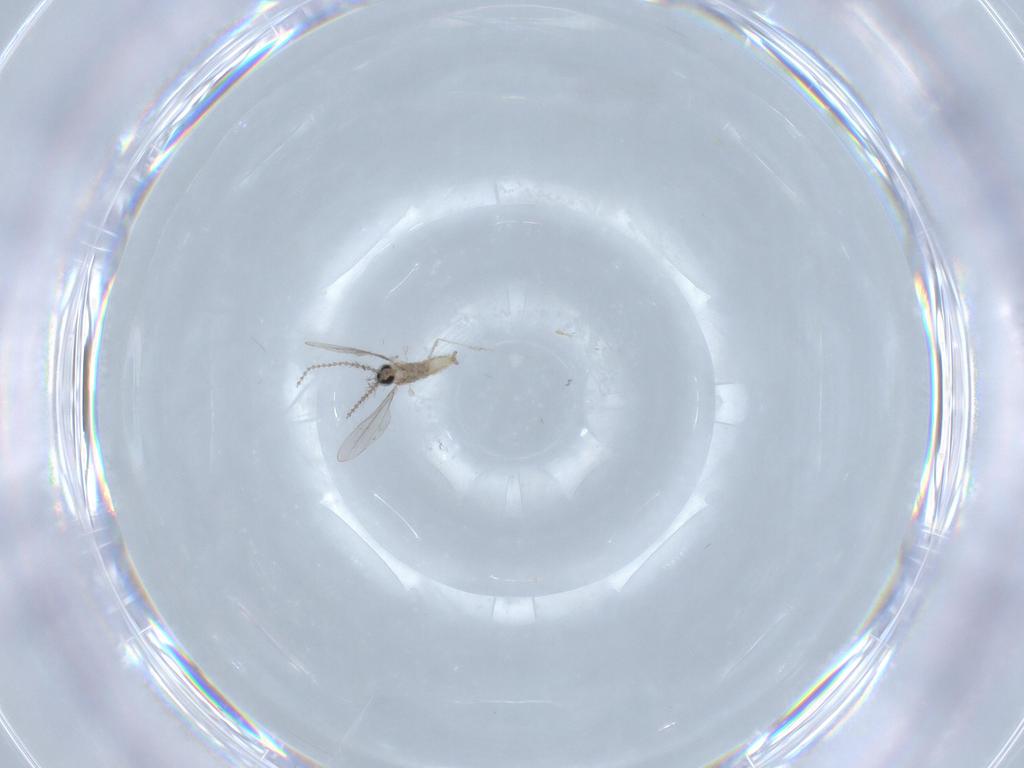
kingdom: Animalia
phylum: Arthropoda
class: Insecta
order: Diptera
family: Cecidomyiidae
